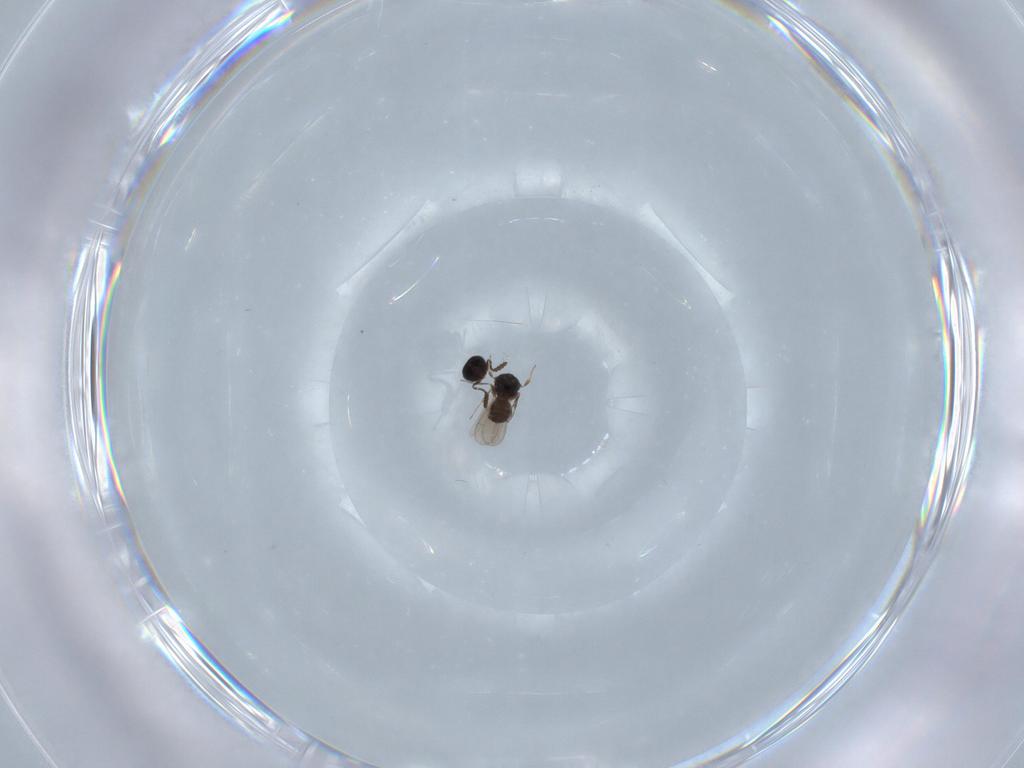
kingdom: Animalia
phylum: Arthropoda
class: Insecta
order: Hymenoptera
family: Scelionidae
